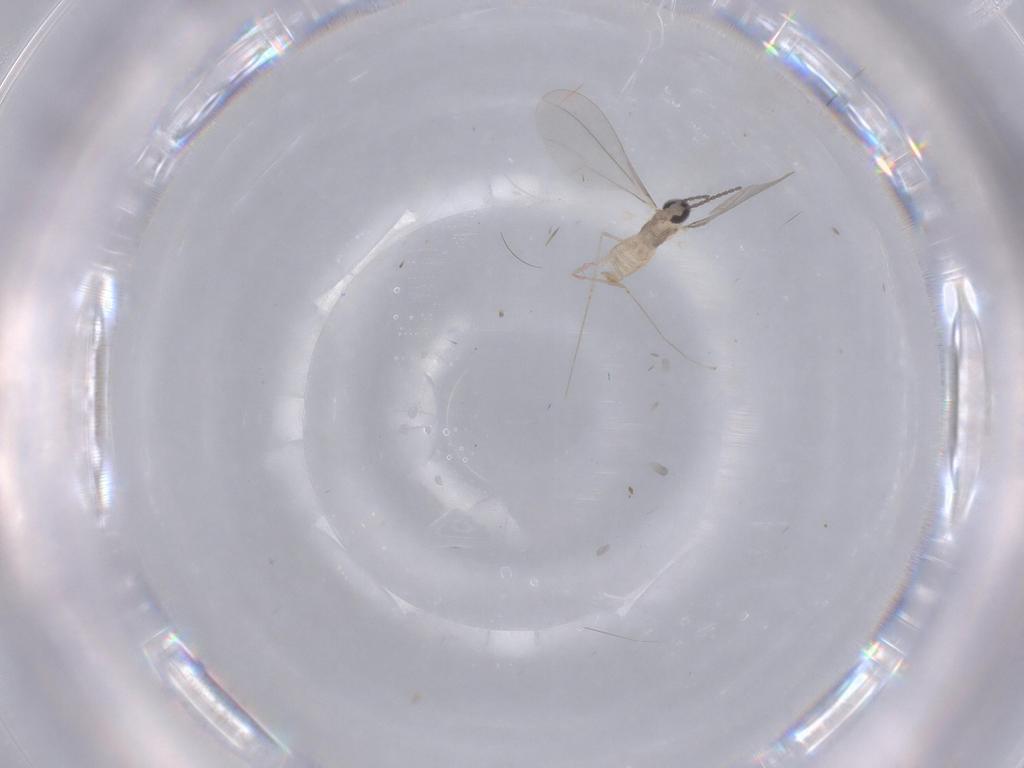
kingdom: Animalia
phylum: Arthropoda
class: Insecta
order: Diptera
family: Cecidomyiidae
